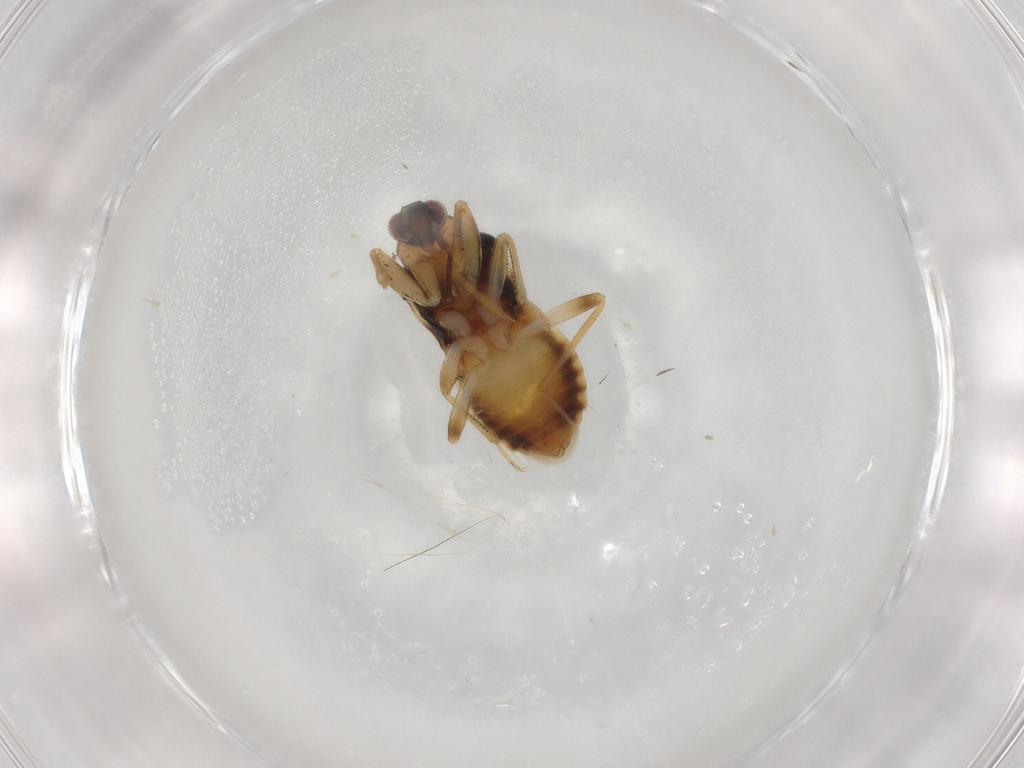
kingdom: Animalia
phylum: Arthropoda
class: Insecta
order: Hemiptera
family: Nabidae
